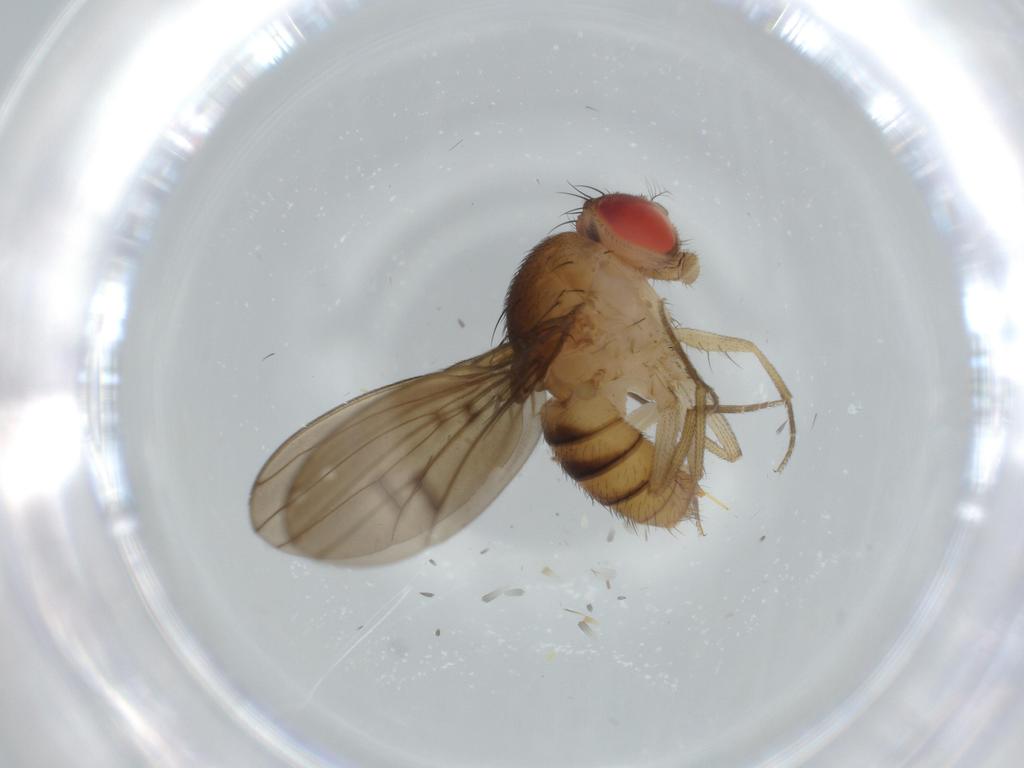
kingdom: Animalia
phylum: Arthropoda
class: Insecta
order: Diptera
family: Drosophilidae
